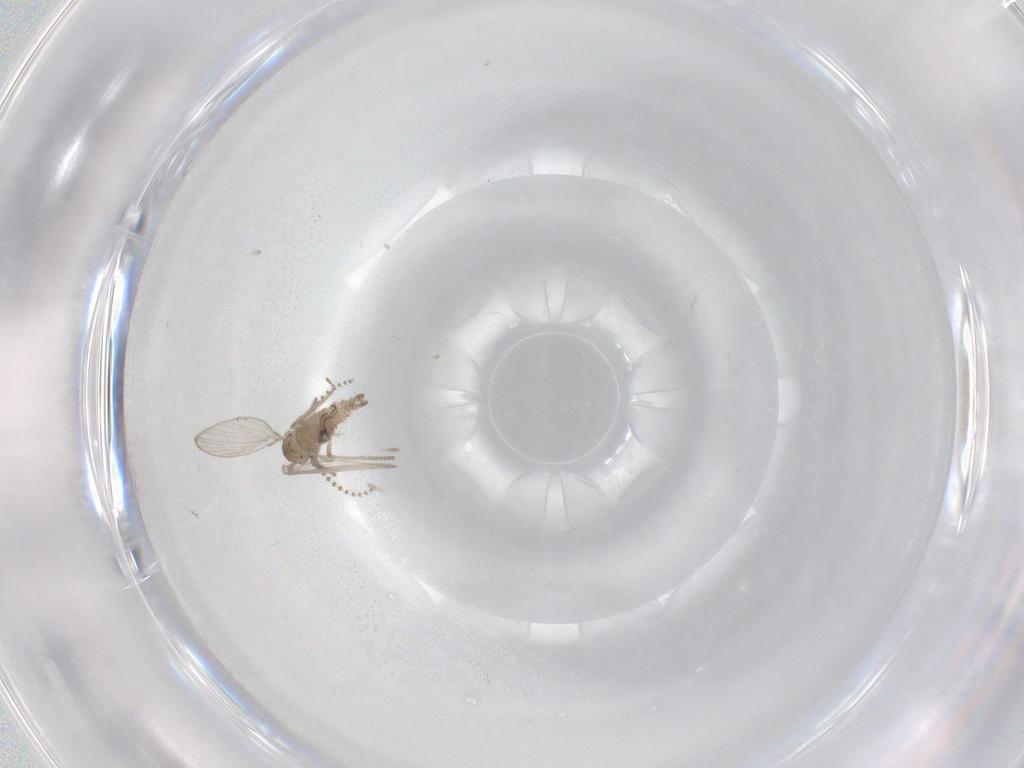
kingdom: Animalia
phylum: Arthropoda
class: Insecta
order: Diptera
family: Psychodidae
